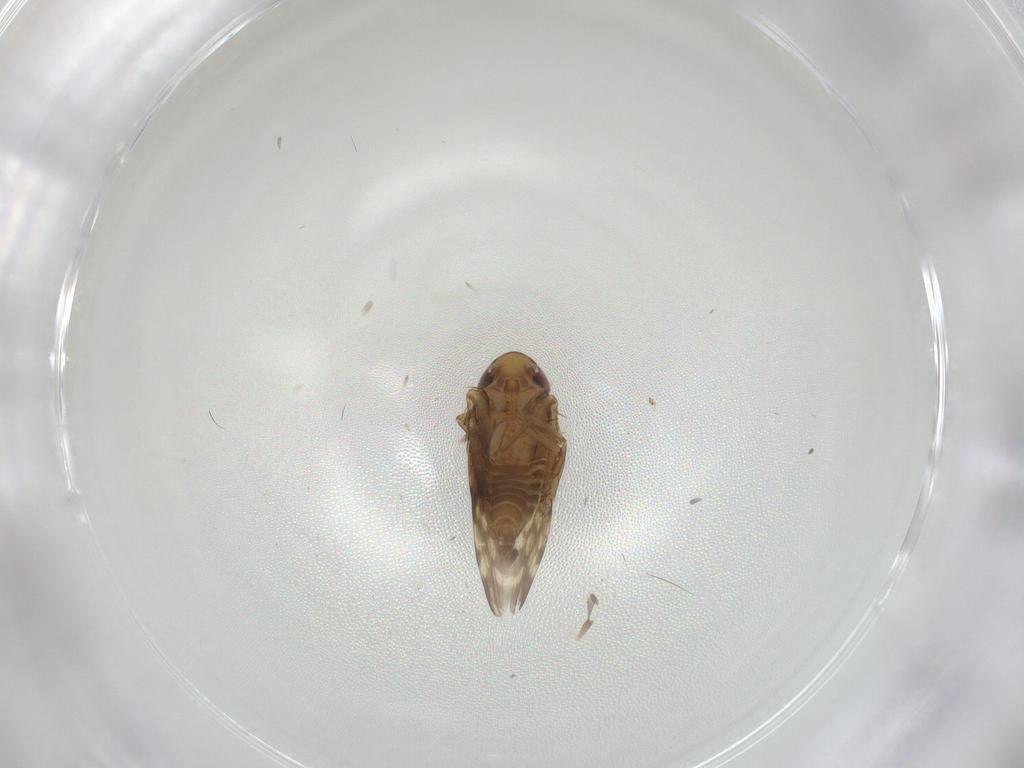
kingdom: Animalia
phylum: Arthropoda
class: Insecta
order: Hemiptera
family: Cicadellidae
